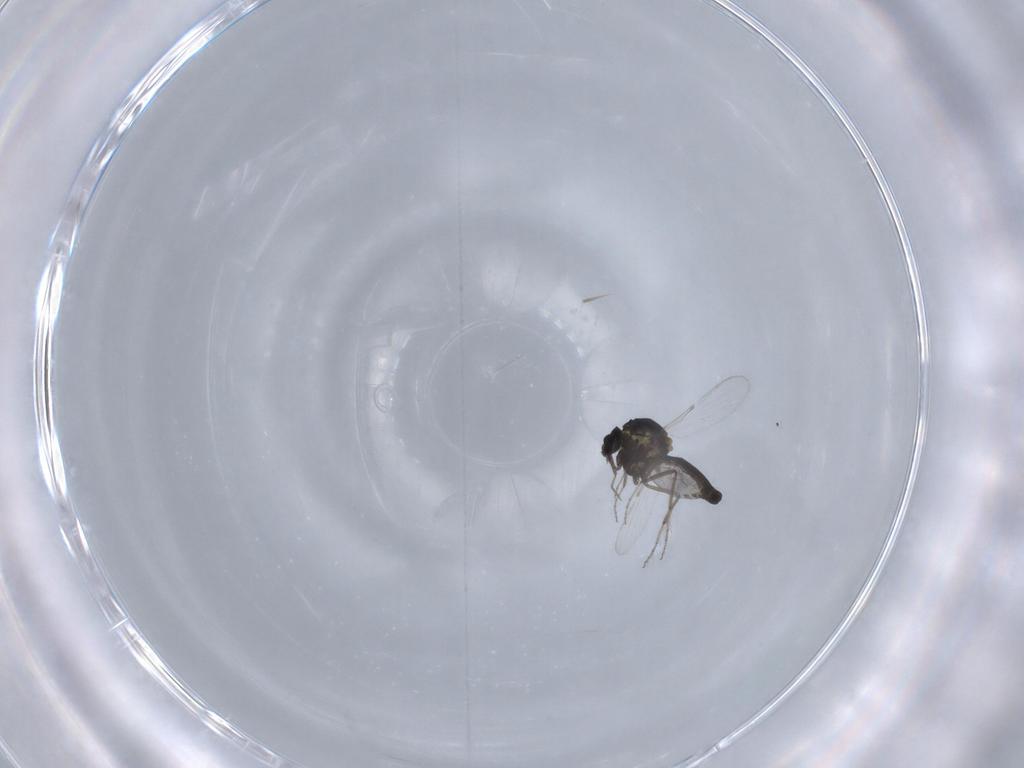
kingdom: Animalia
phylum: Arthropoda
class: Insecta
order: Diptera
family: Ceratopogonidae
